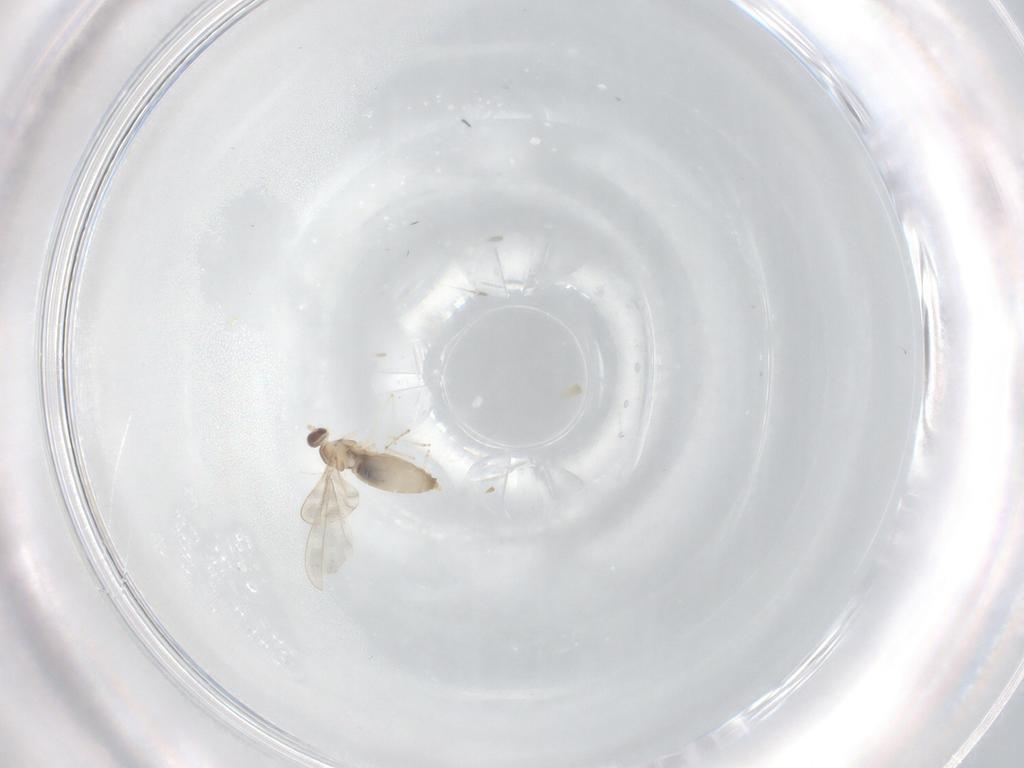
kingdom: Animalia
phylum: Arthropoda
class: Insecta
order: Diptera
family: Cecidomyiidae
